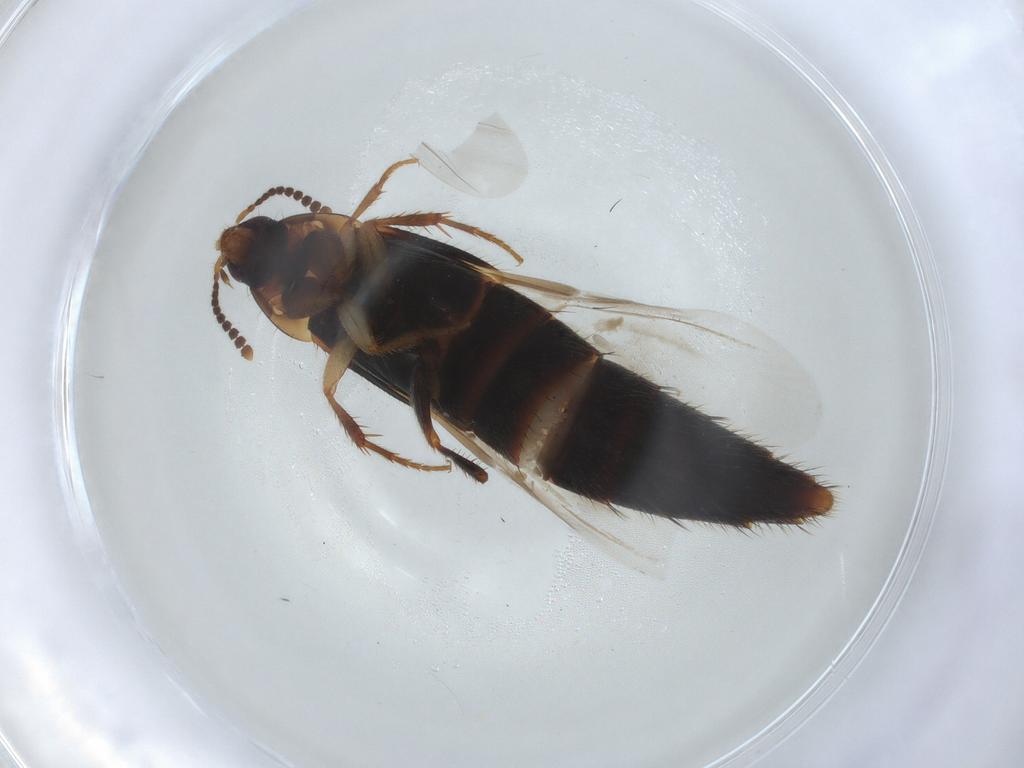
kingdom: Animalia
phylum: Arthropoda
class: Insecta
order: Coleoptera
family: Staphylinidae
